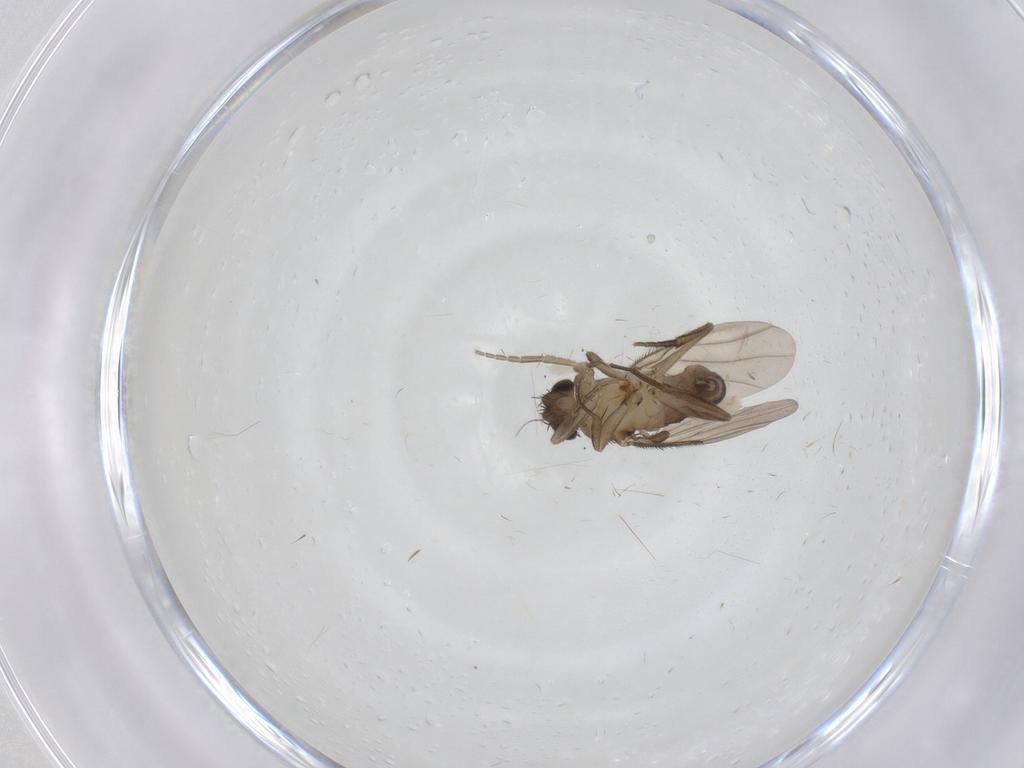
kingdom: Animalia
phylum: Arthropoda
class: Insecta
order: Diptera
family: Phoridae
